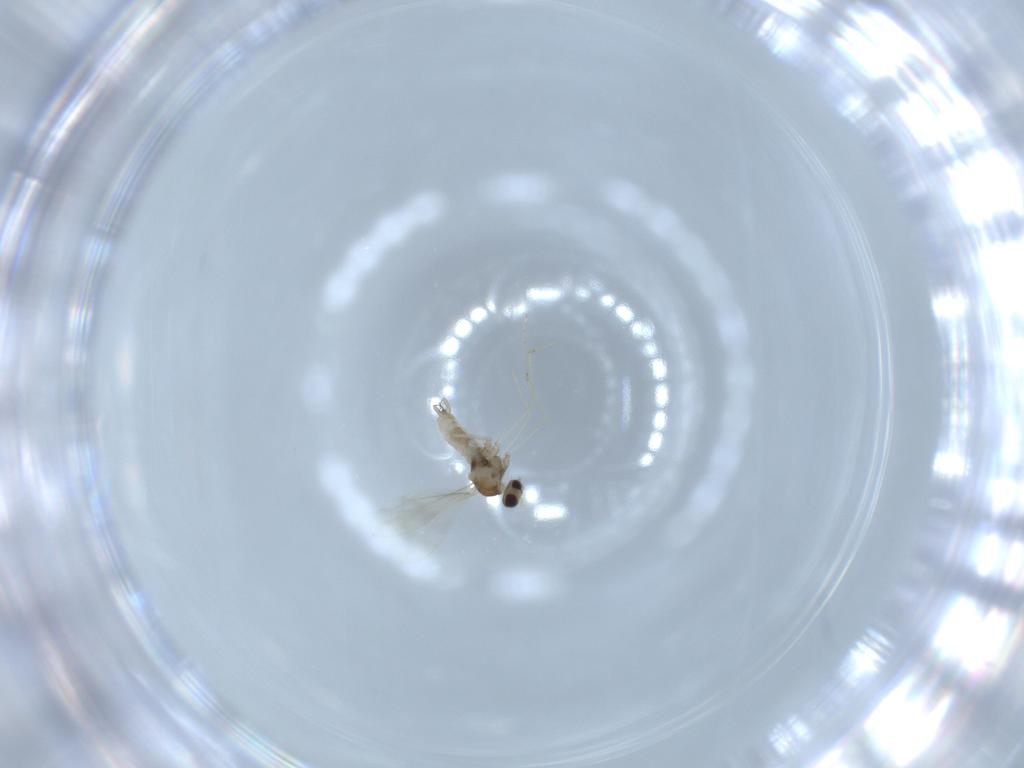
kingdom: Animalia
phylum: Arthropoda
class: Insecta
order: Diptera
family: Cecidomyiidae
